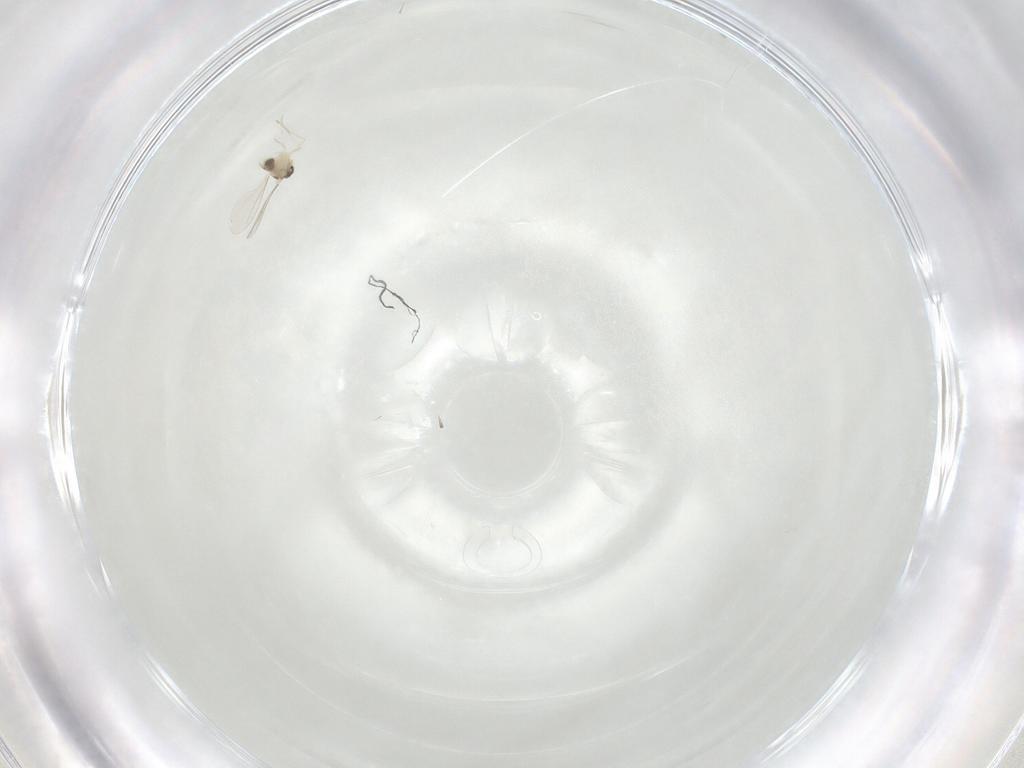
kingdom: Animalia
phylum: Arthropoda
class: Insecta
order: Diptera
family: Cecidomyiidae
